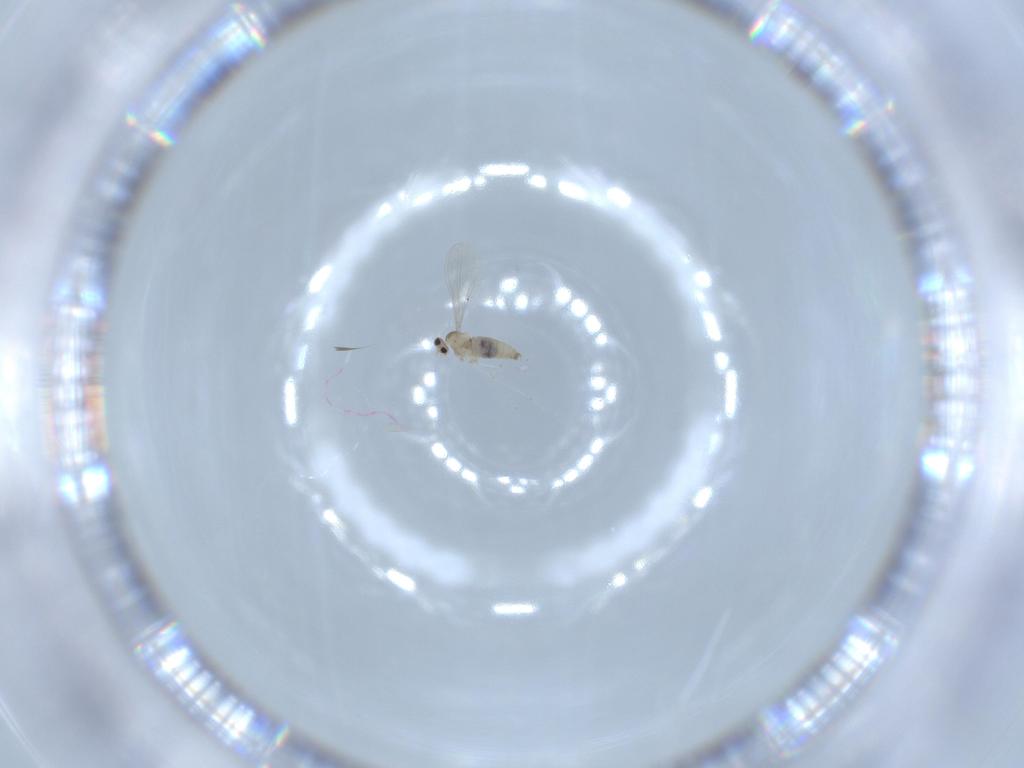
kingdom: Animalia
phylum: Arthropoda
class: Insecta
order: Diptera
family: Cecidomyiidae
